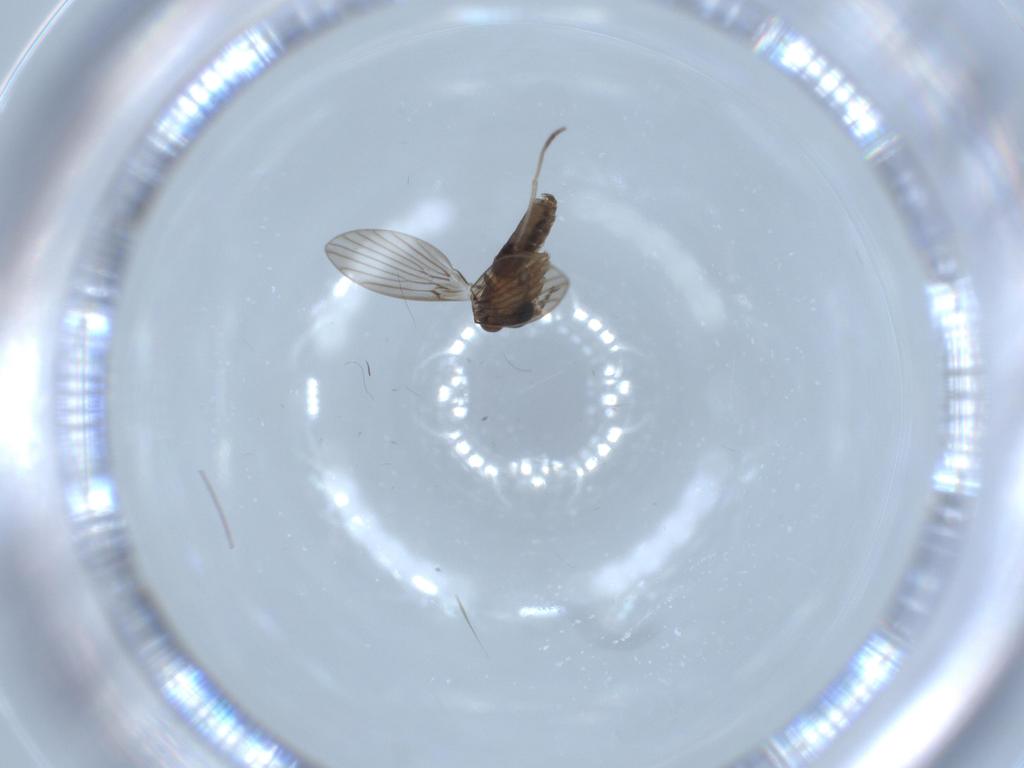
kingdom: Animalia
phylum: Arthropoda
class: Insecta
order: Diptera
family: Psychodidae
